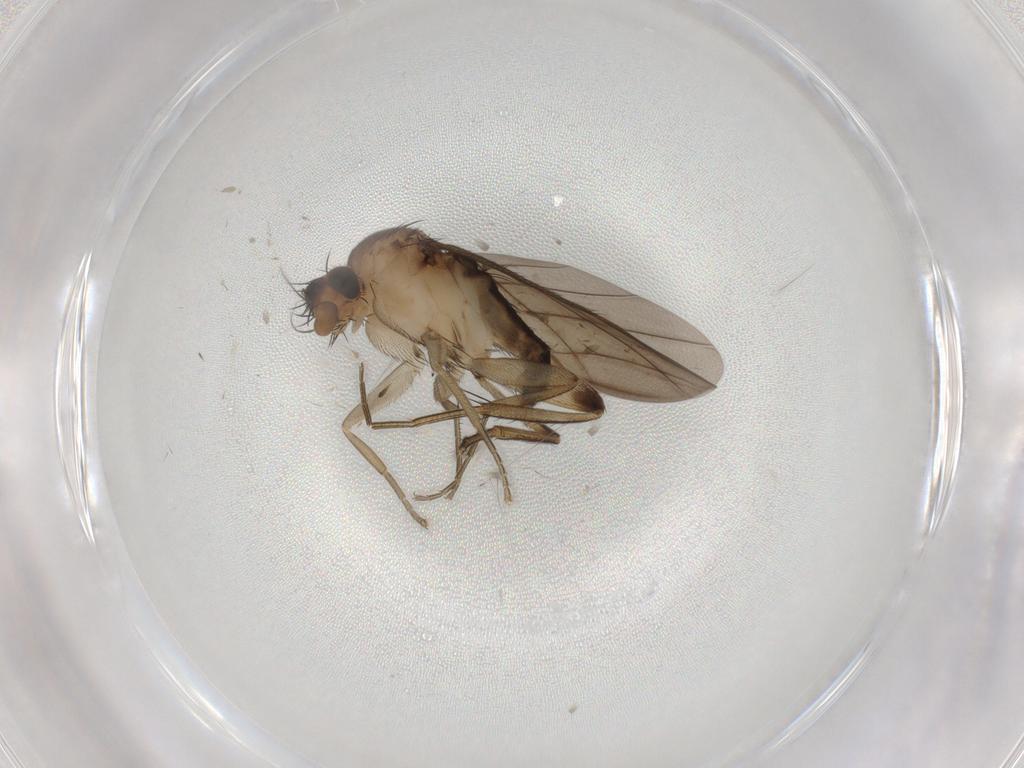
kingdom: Animalia
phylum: Arthropoda
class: Insecta
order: Diptera
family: Phoridae
